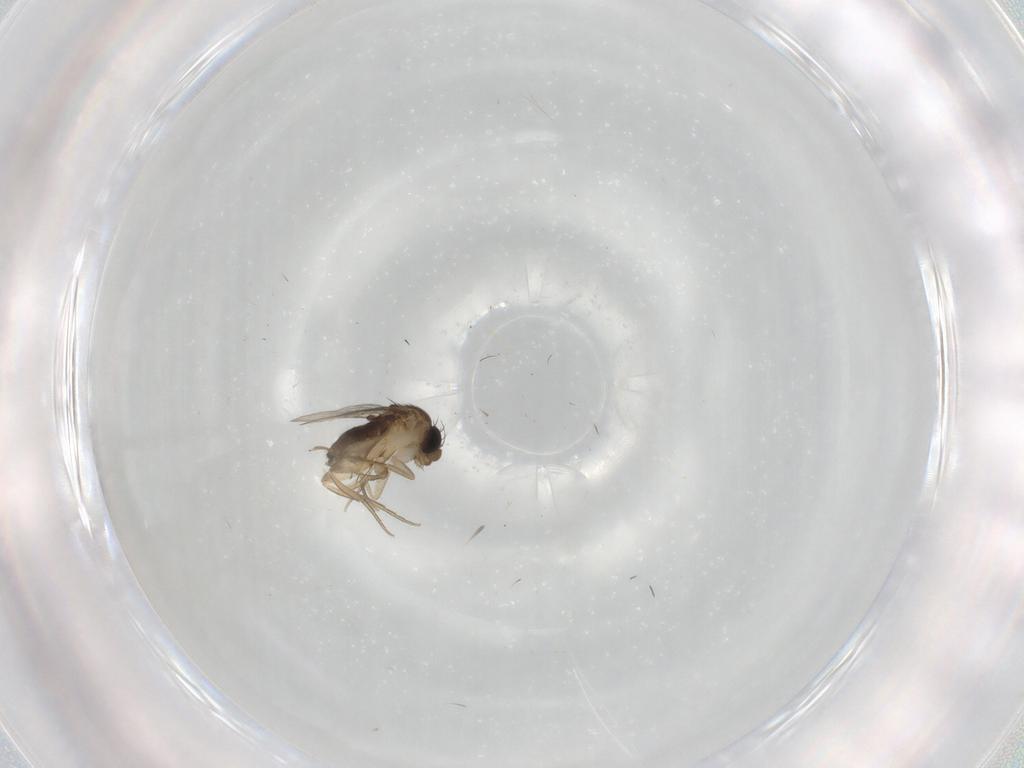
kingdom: Animalia
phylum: Arthropoda
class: Insecta
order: Diptera
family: Phoridae
